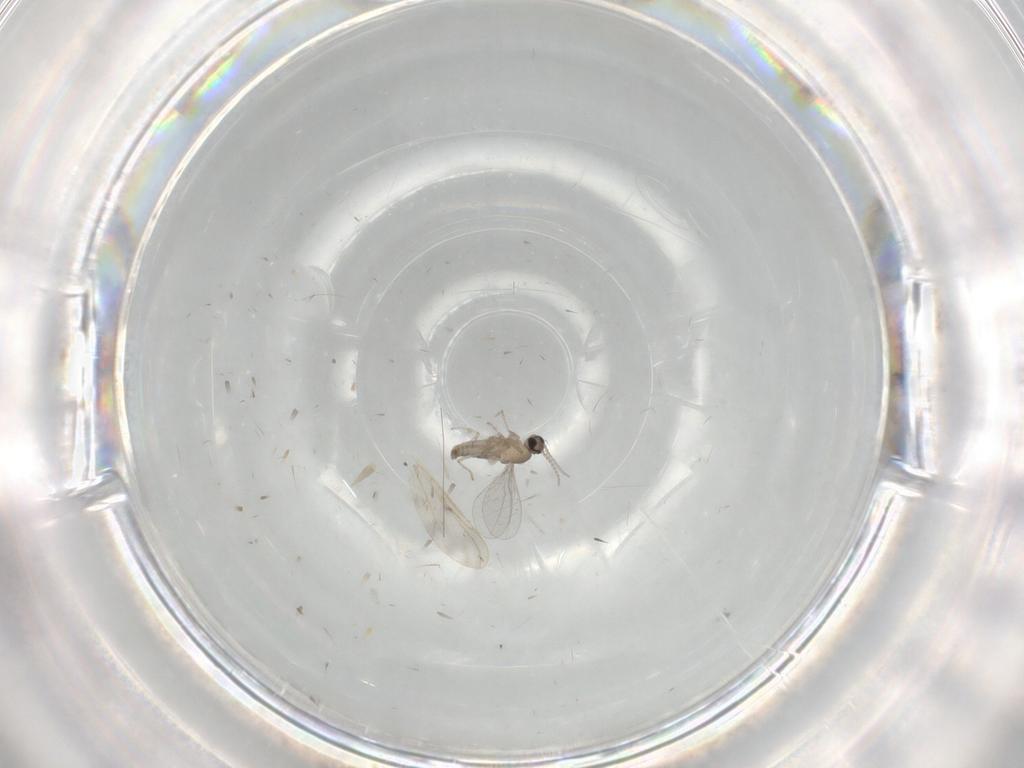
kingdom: Animalia
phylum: Arthropoda
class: Insecta
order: Diptera
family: Cecidomyiidae
